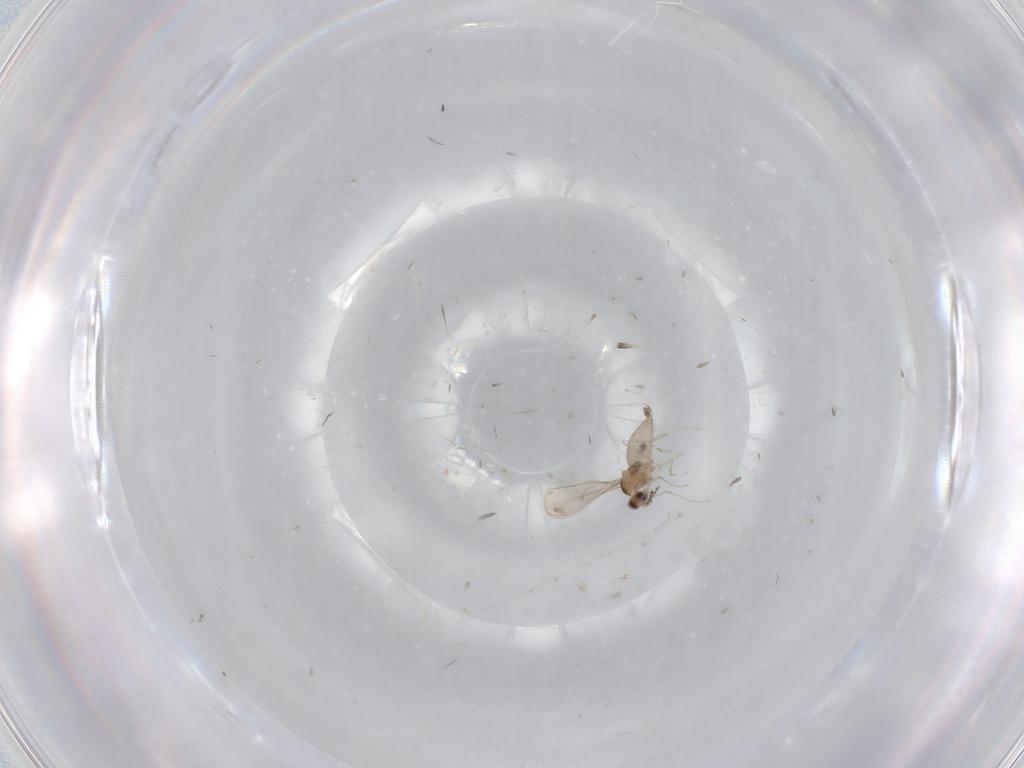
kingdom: Animalia
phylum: Arthropoda
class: Insecta
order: Diptera
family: Cecidomyiidae
